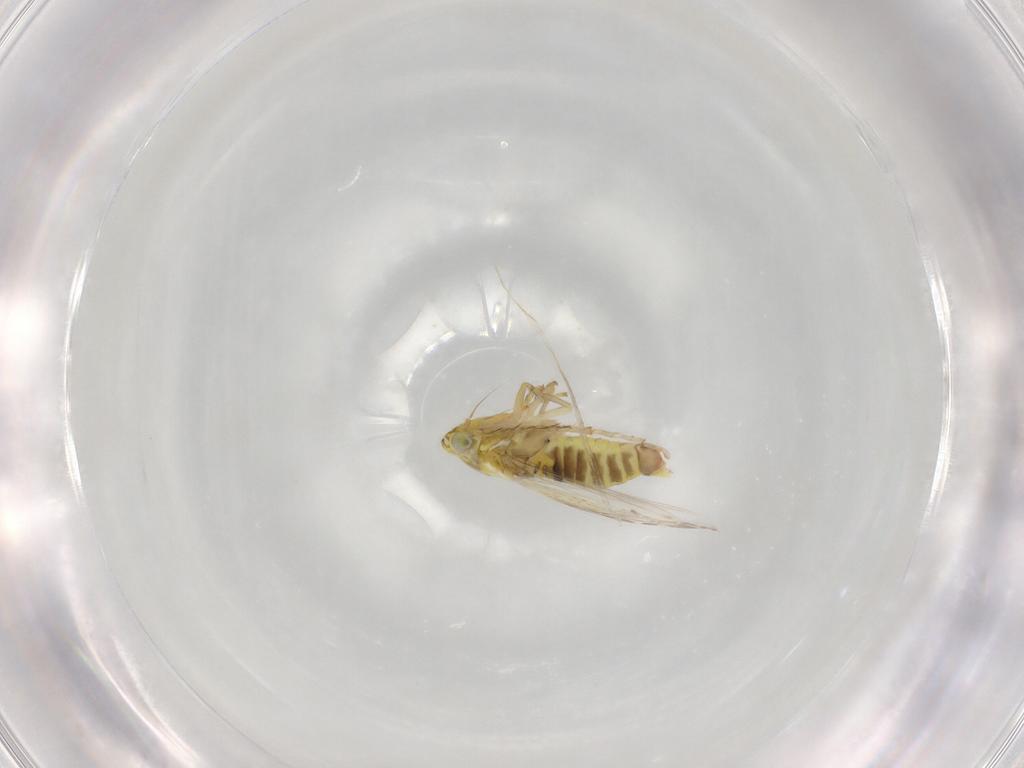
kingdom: Animalia
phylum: Arthropoda
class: Insecta
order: Hemiptera
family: Cicadellidae
